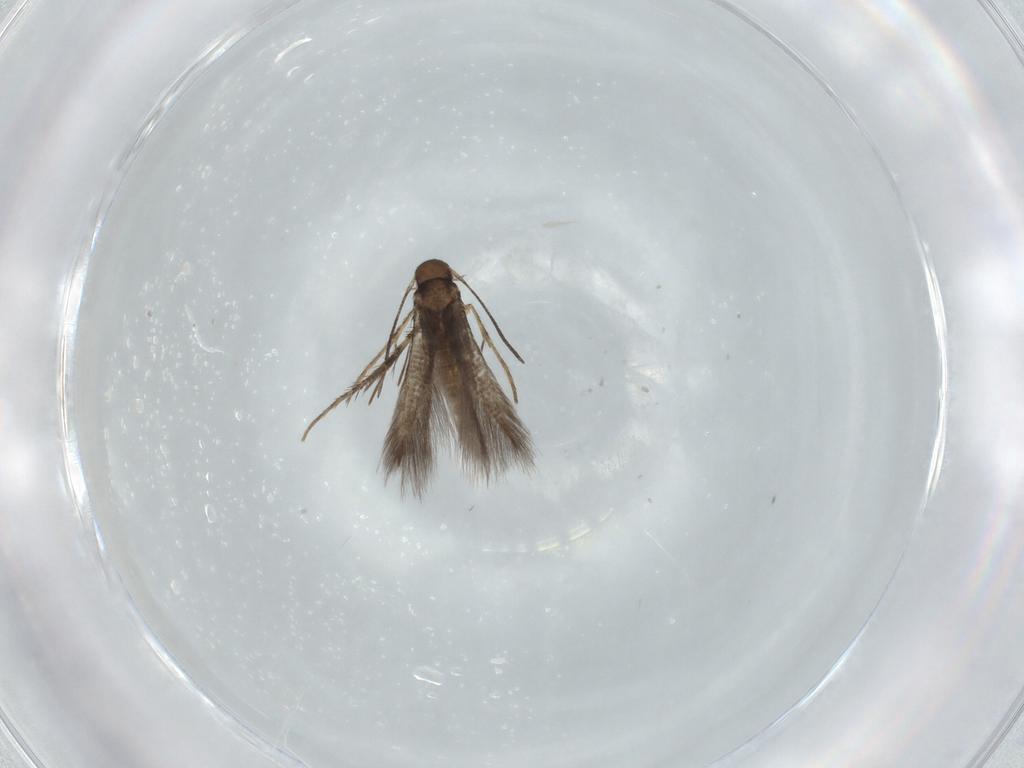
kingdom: Animalia
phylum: Arthropoda
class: Insecta
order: Lepidoptera
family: Pyralidae
